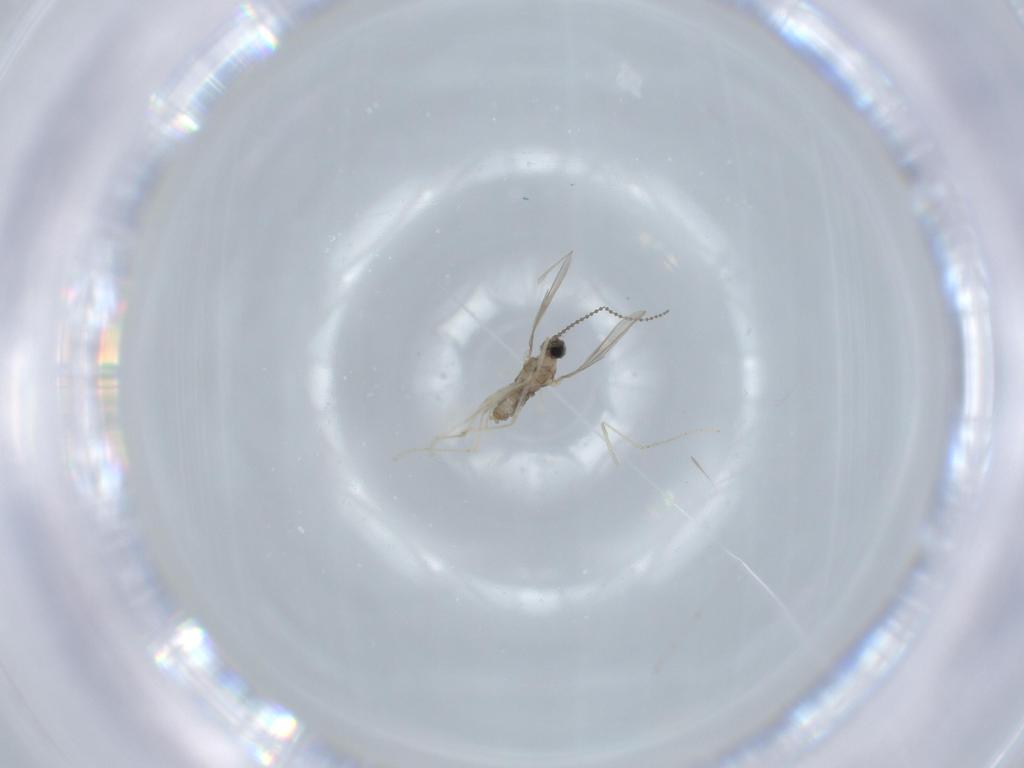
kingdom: Animalia
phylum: Arthropoda
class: Insecta
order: Diptera
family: Cecidomyiidae
